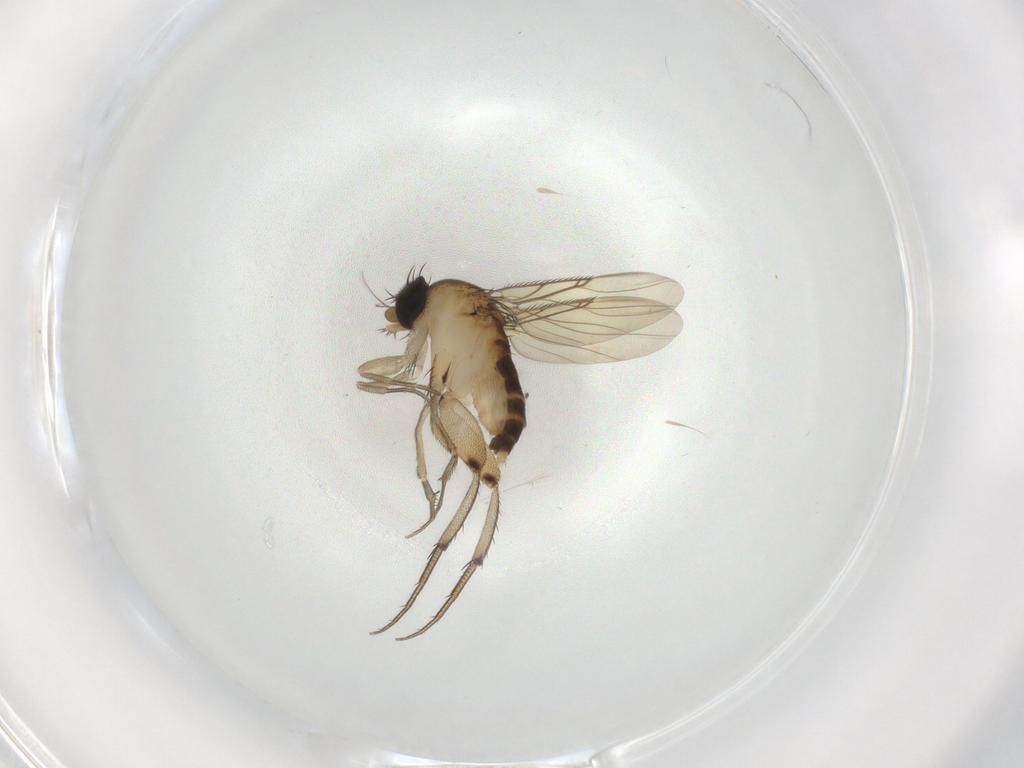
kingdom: Animalia
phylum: Arthropoda
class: Insecta
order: Diptera
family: Phoridae
